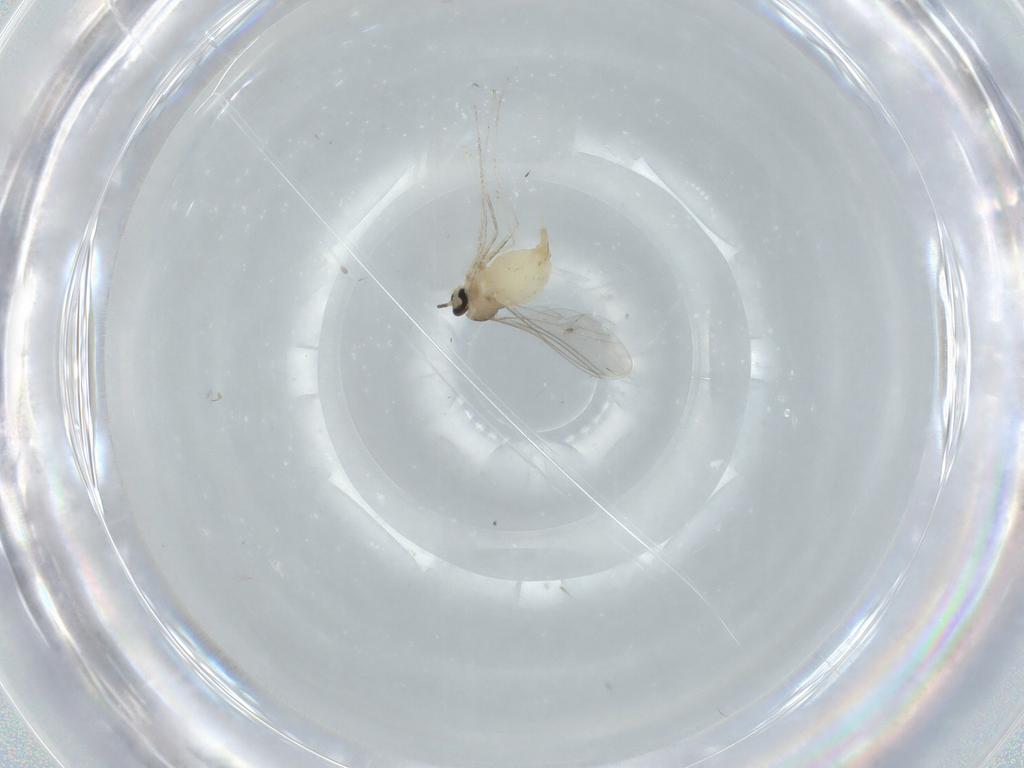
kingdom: Animalia
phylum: Arthropoda
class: Insecta
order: Diptera
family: Cecidomyiidae
